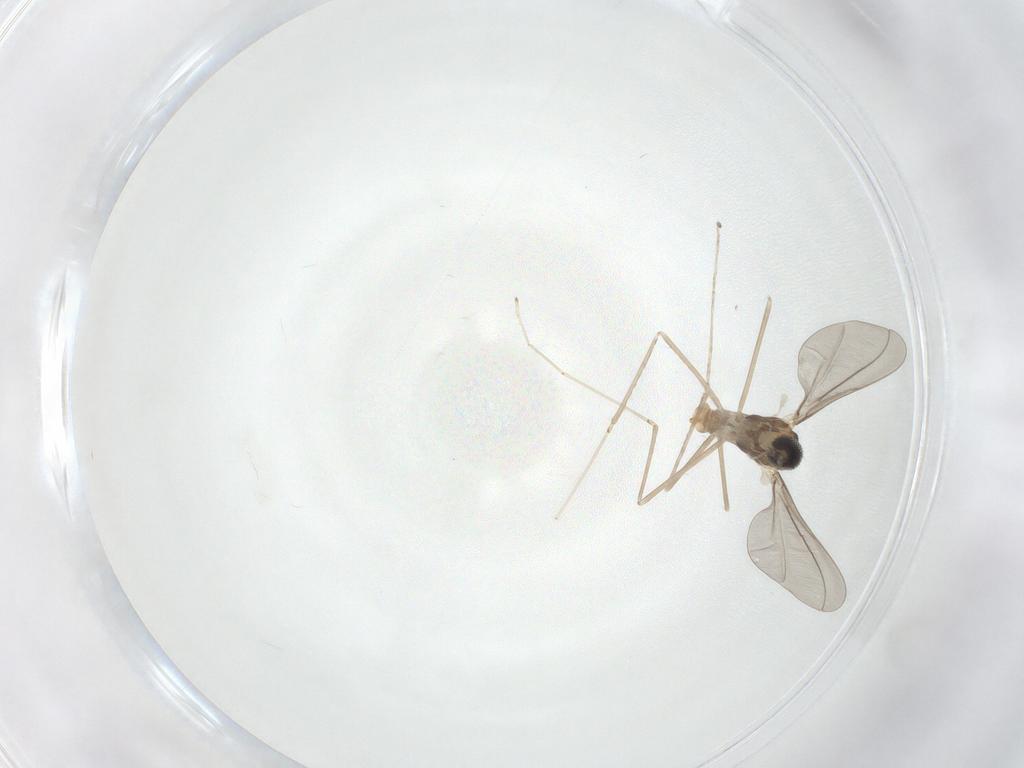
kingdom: Animalia
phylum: Arthropoda
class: Insecta
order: Diptera
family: Cecidomyiidae
